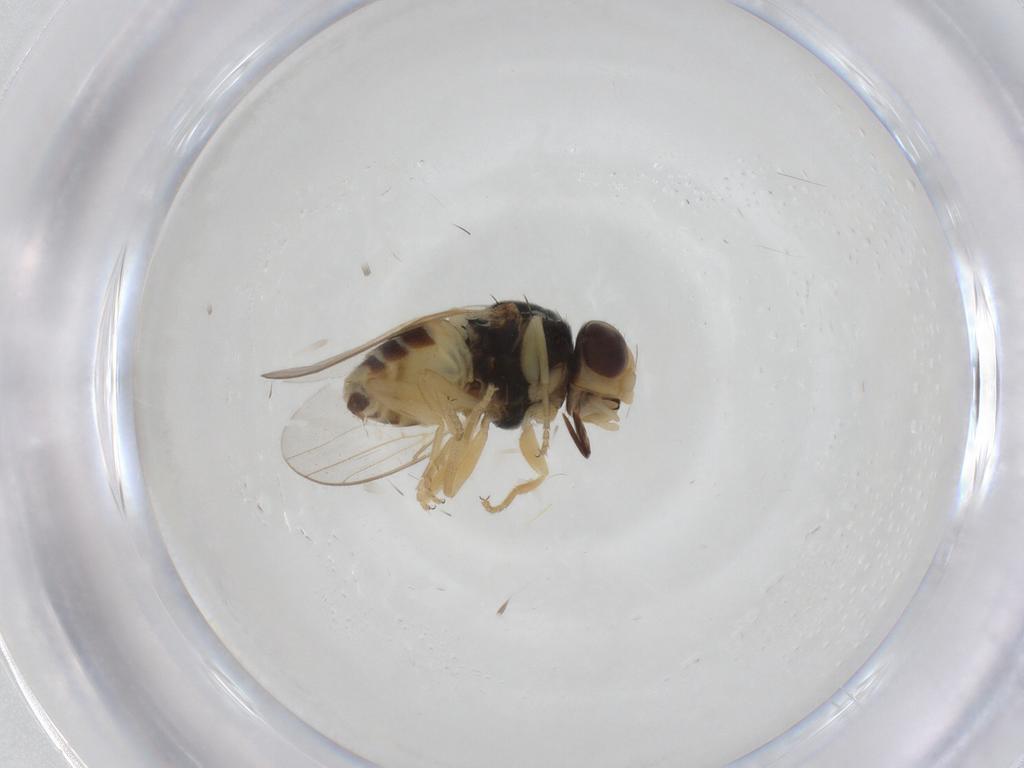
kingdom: Animalia
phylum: Arthropoda
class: Insecta
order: Diptera
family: Chloropidae
